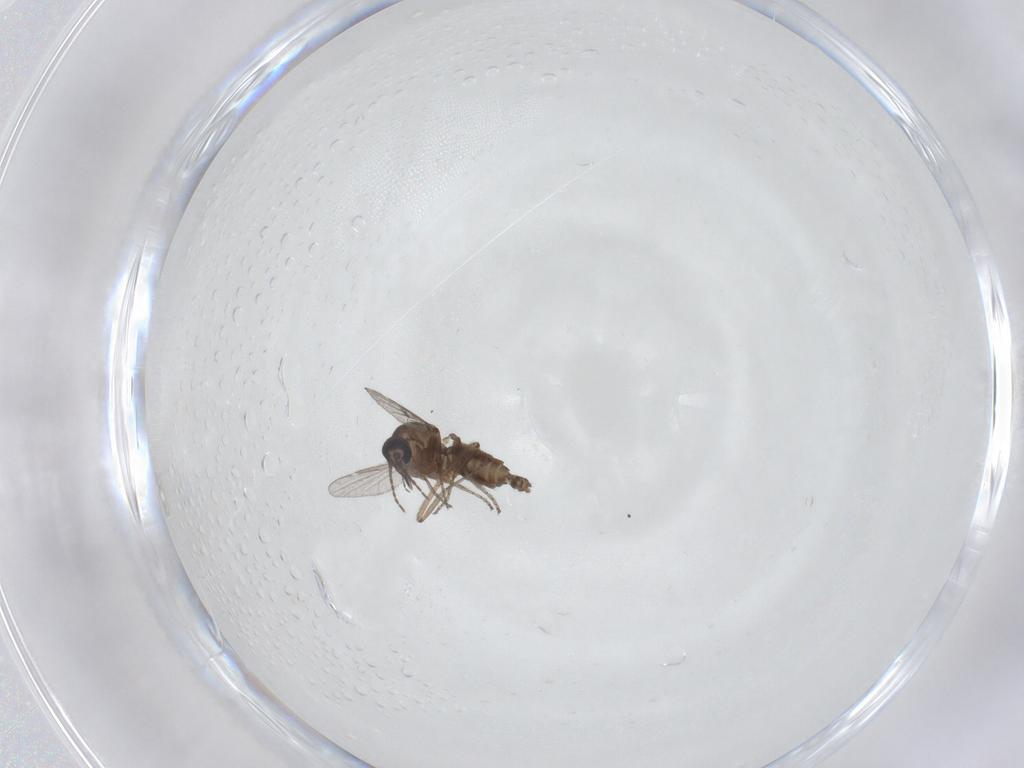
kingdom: Animalia
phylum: Arthropoda
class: Insecta
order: Diptera
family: Ceratopogonidae
